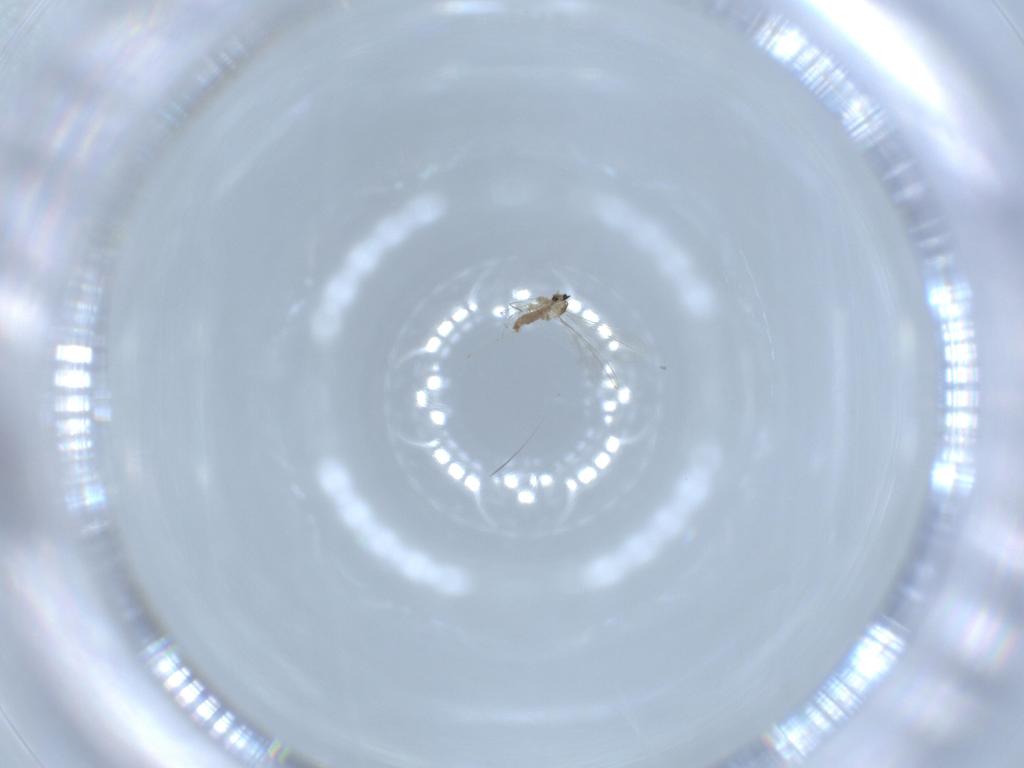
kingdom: Animalia
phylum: Arthropoda
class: Insecta
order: Diptera
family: Cecidomyiidae
